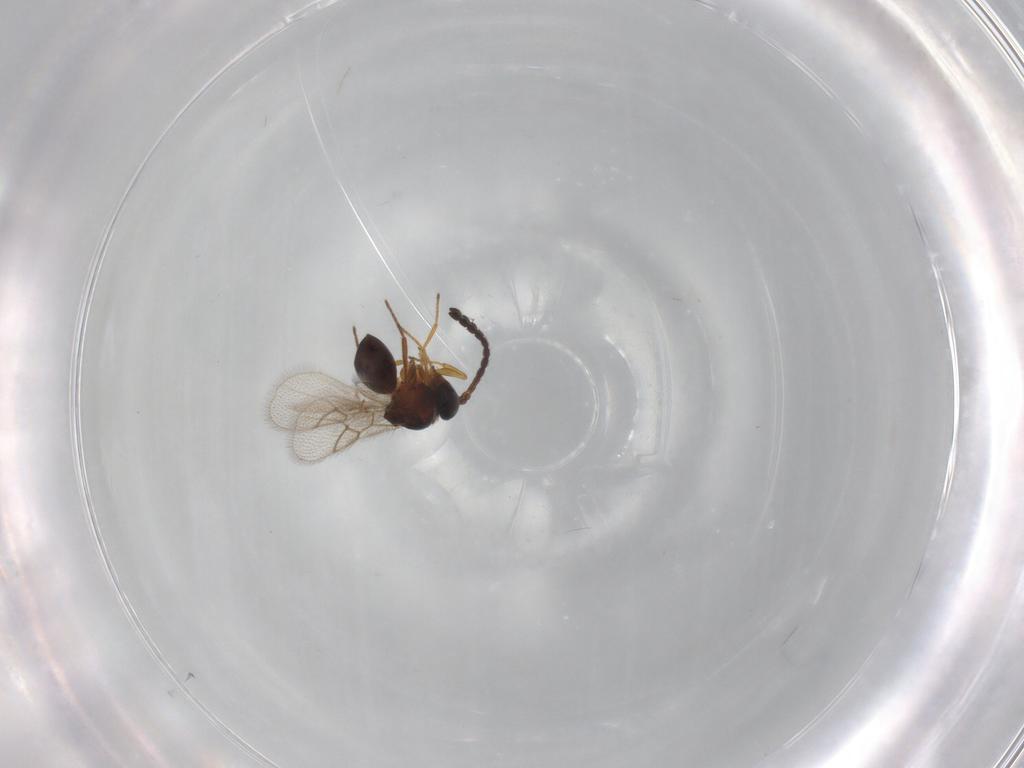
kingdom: Animalia
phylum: Arthropoda
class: Insecta
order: Hymenoptera
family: Figitidae
